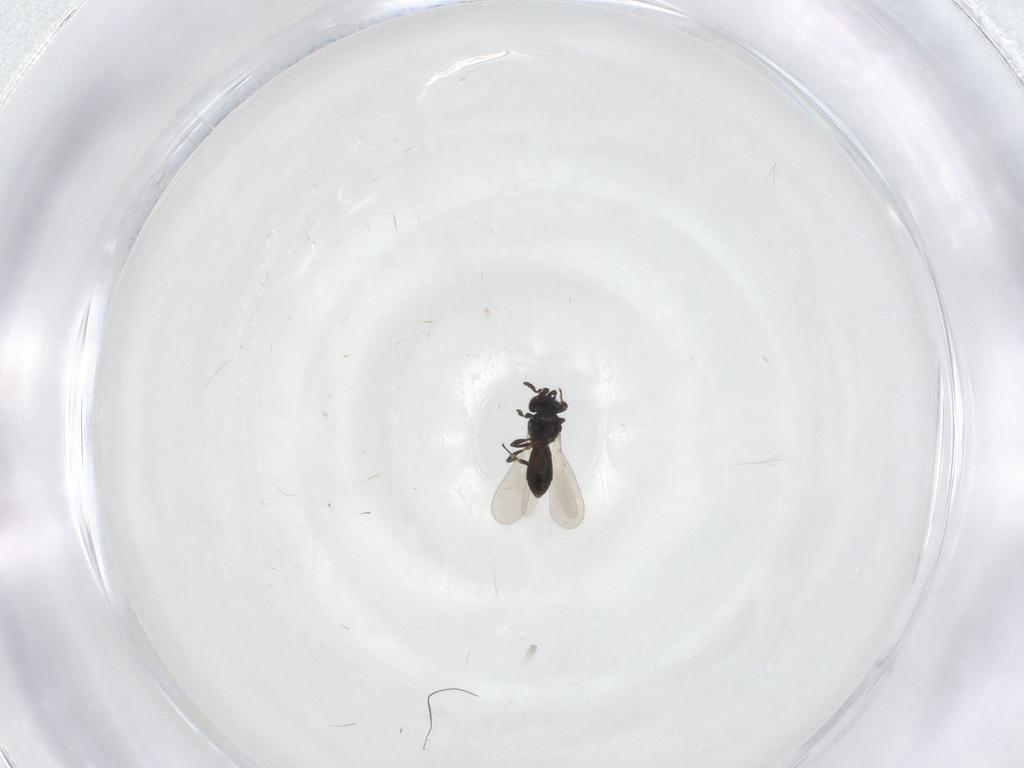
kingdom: Animalia
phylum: Arthropoda
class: Insecta
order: Hymenoptera
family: Platygastridae
